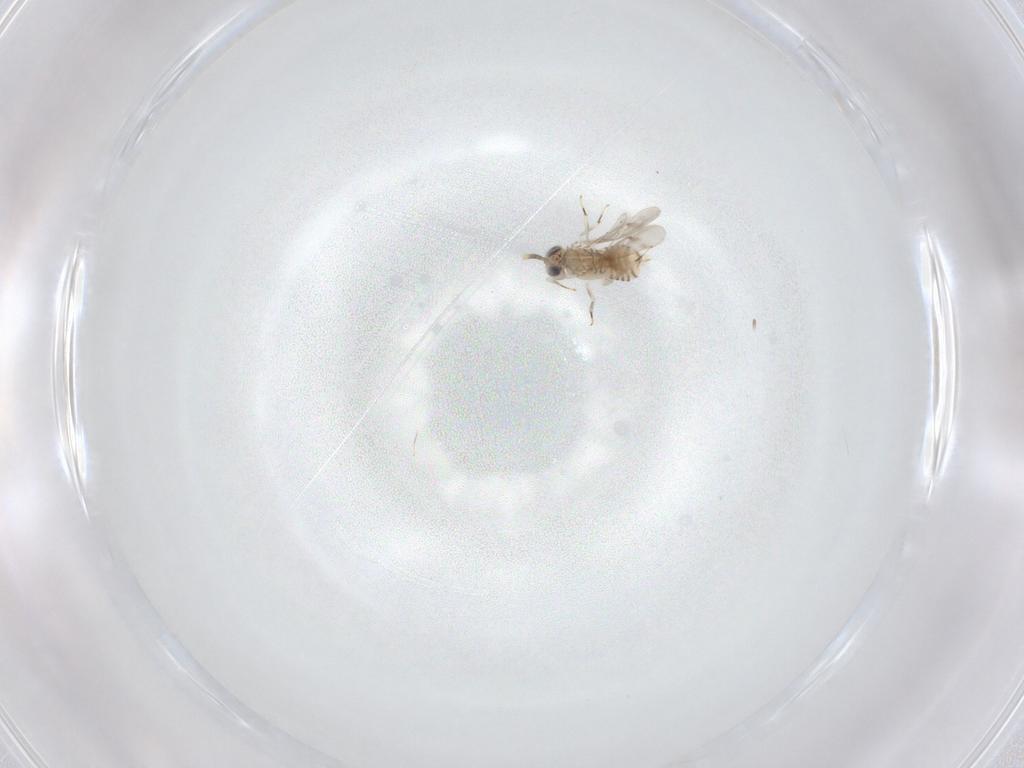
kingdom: Animalia
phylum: Arthropoda
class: Insecta
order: Hymenoptera
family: Aphelinidae
